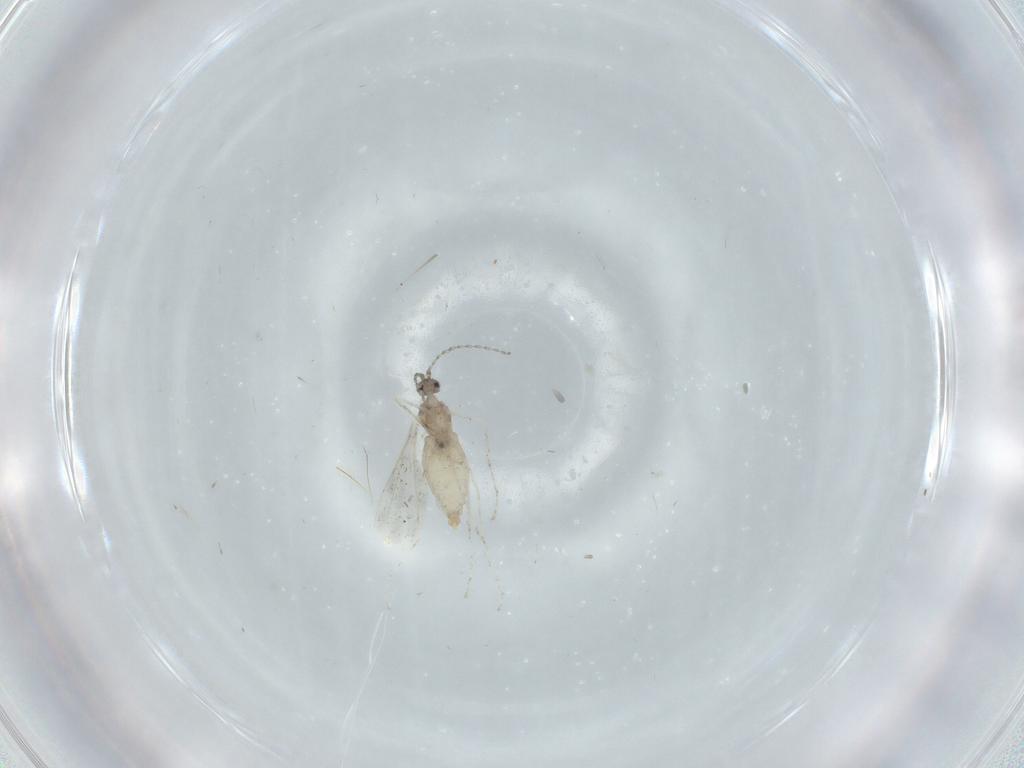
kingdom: Animalia
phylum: Arthropoda
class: Insecta
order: Diptera
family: Cecidomyiidae
